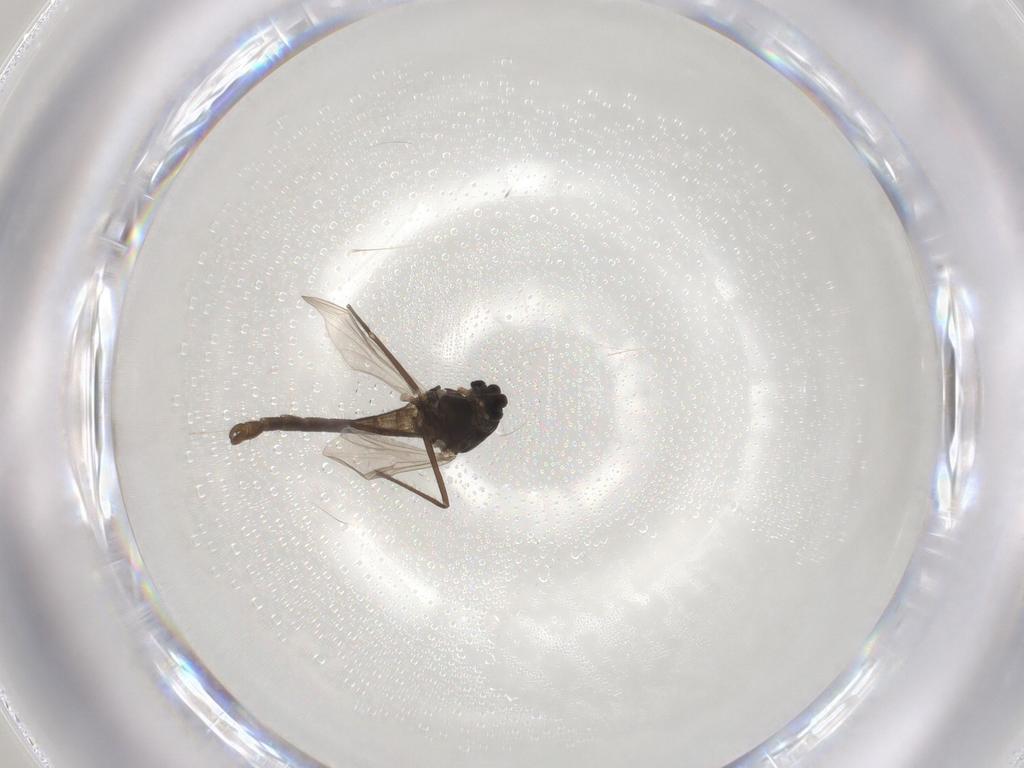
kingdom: Animalia
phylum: Arthropoda
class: Insecta
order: Diptera
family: Chironomidae
